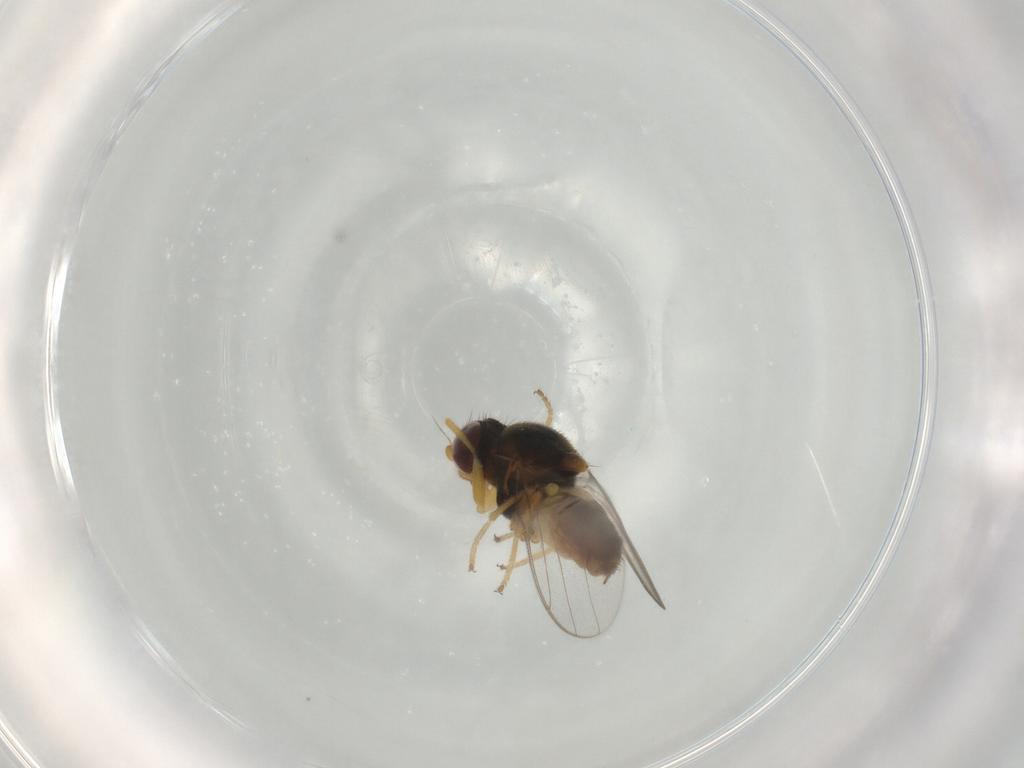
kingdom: Animalia
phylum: Arthropoda
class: Insecta
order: Diptera
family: Chloropidae
